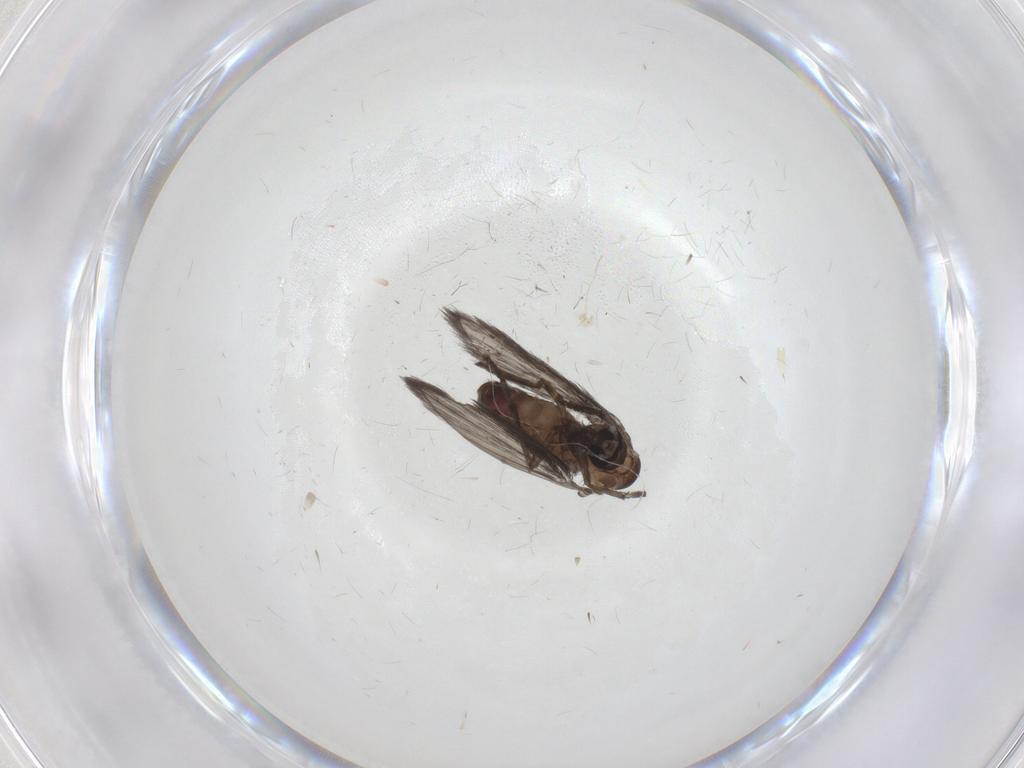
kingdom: Animalia
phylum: Arthropoda
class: Insecta
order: Diptera
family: Psychodidae
